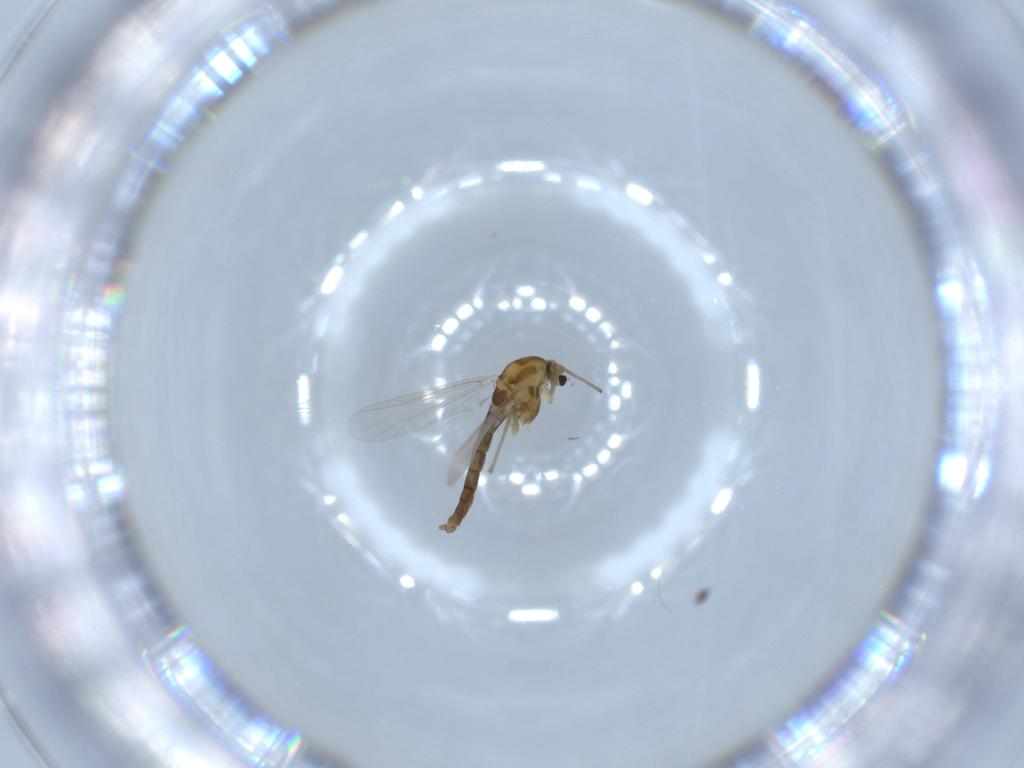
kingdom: Animalia
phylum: Arthropoda
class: Insecta
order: Diptera
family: Chironomidae
